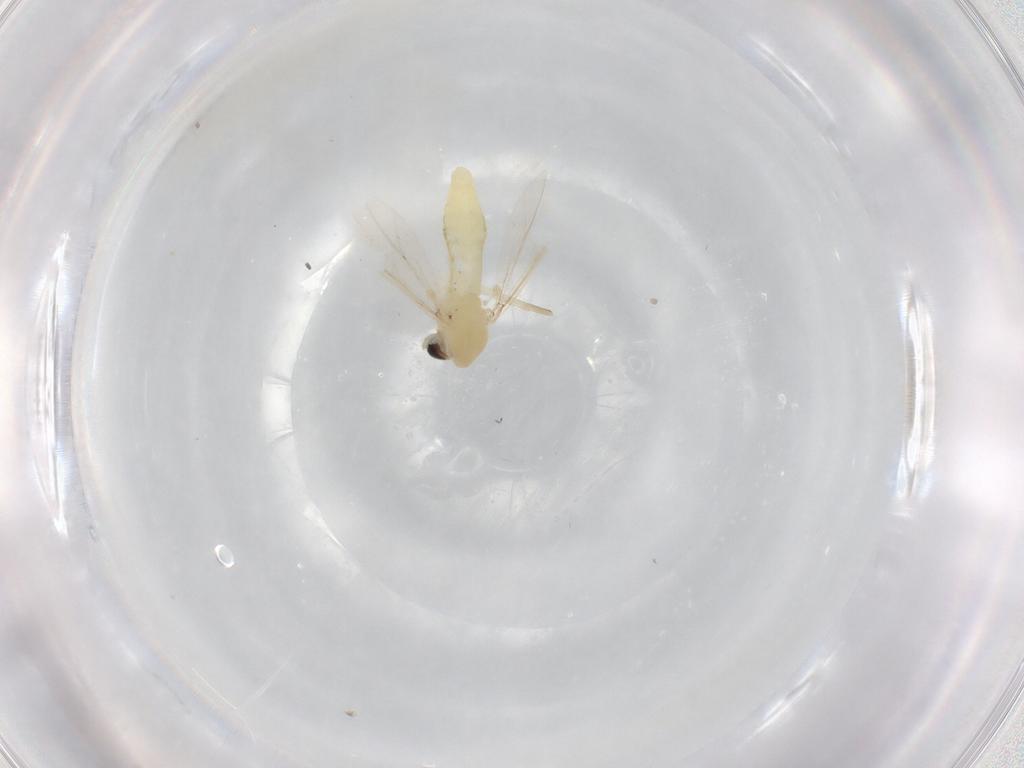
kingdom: Animalia
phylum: Arthropoda
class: Insecta
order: Diptera
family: Chironomidae
